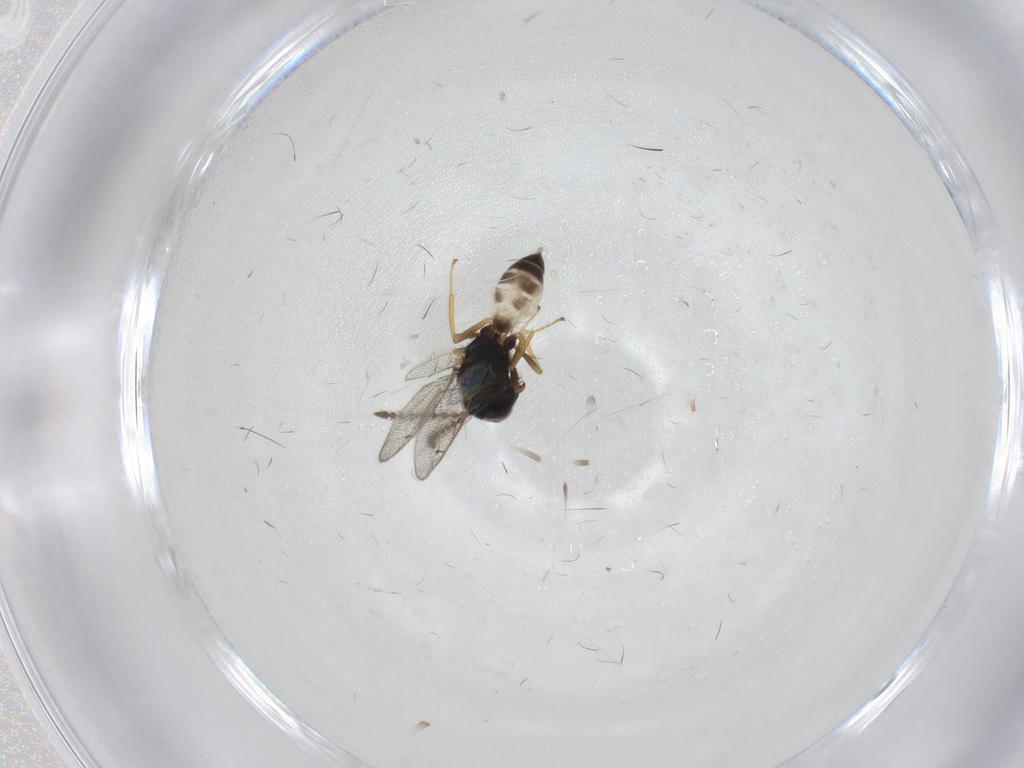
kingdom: Animalia
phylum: Arthropoda
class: Insecta
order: Hymenoptera
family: Pteromalidae
